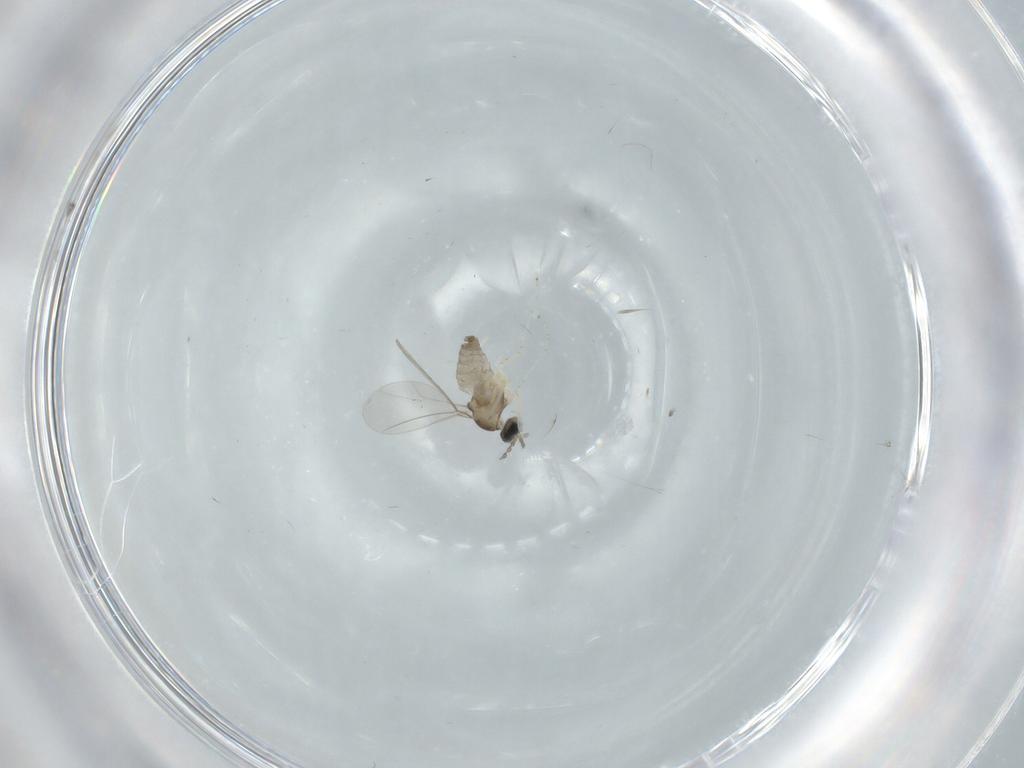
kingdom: Animalia
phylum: Arthropoda
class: Insecta
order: Diptera
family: Cecidomyiidae
